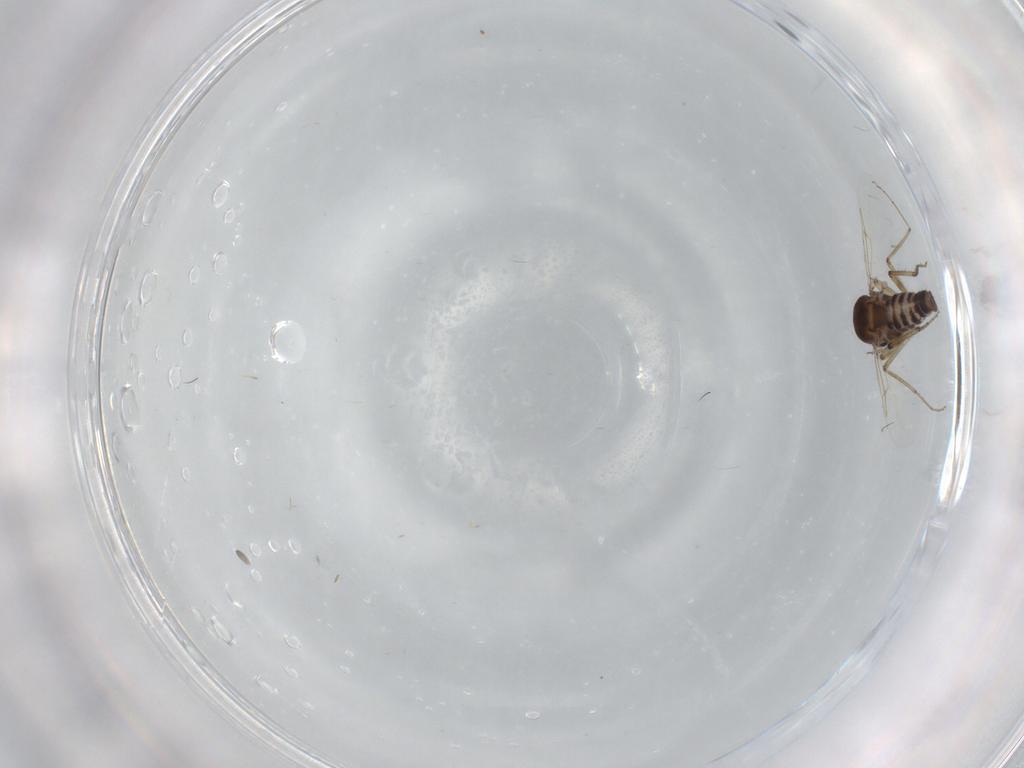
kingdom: Animalia
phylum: Arthropoda
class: Insecta
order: Diptera
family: Ceratopogonidae
